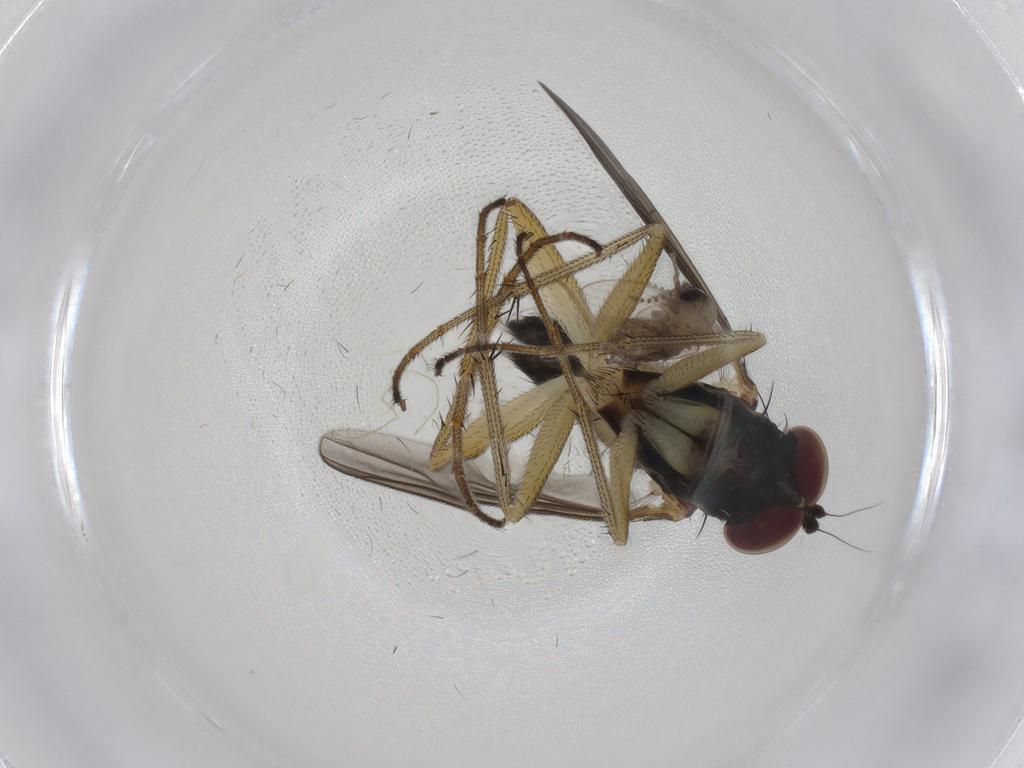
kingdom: Animalia
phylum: Arthropoda
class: Insecta
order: Diptera
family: Dolichopodidae
